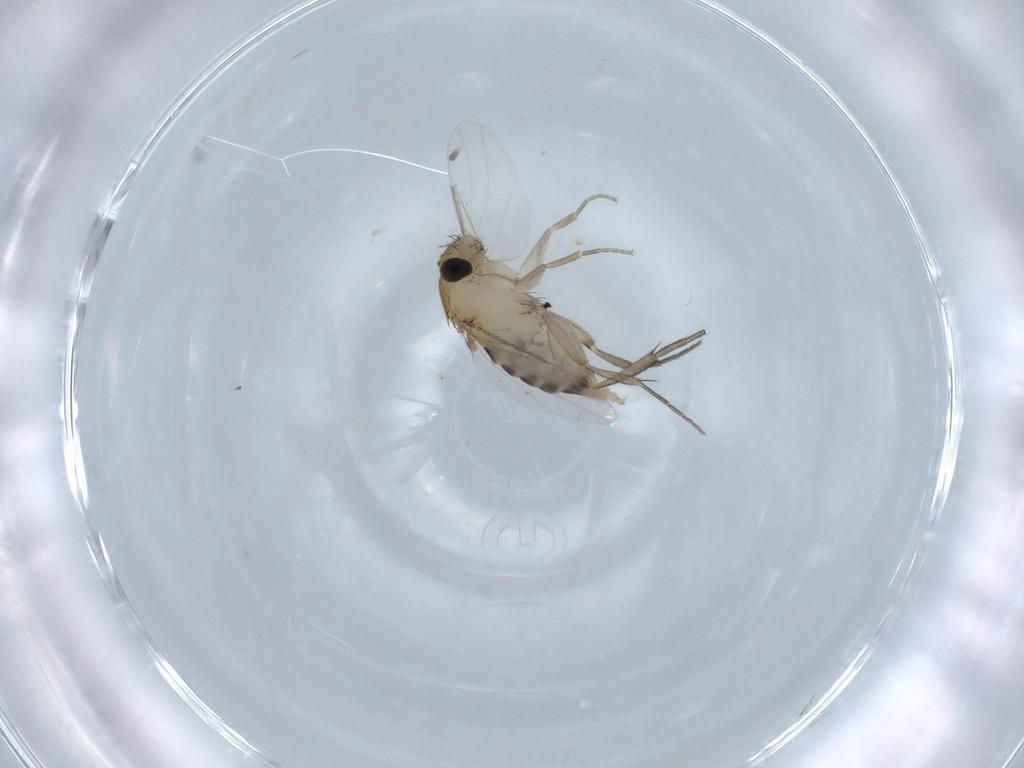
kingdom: Animalia
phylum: Arthropoda
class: Insecta
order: Diptera
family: Phoridae
